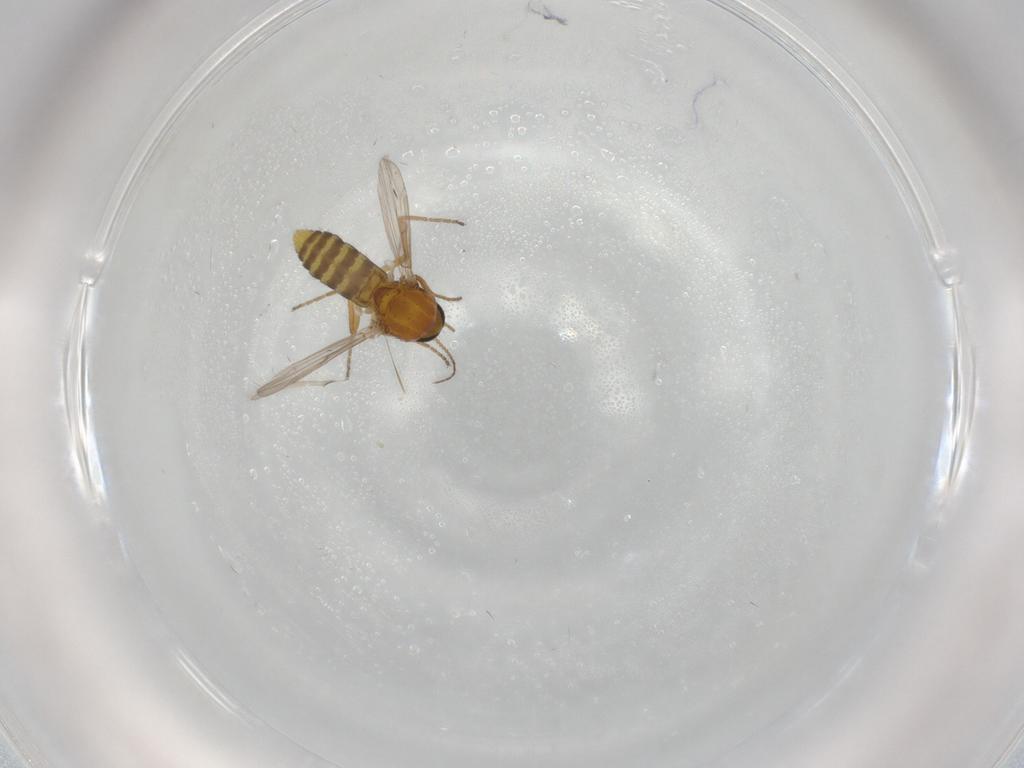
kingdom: Animalia
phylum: Arthropoda
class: Insecta
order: Diptera
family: Ceratopogonidae
